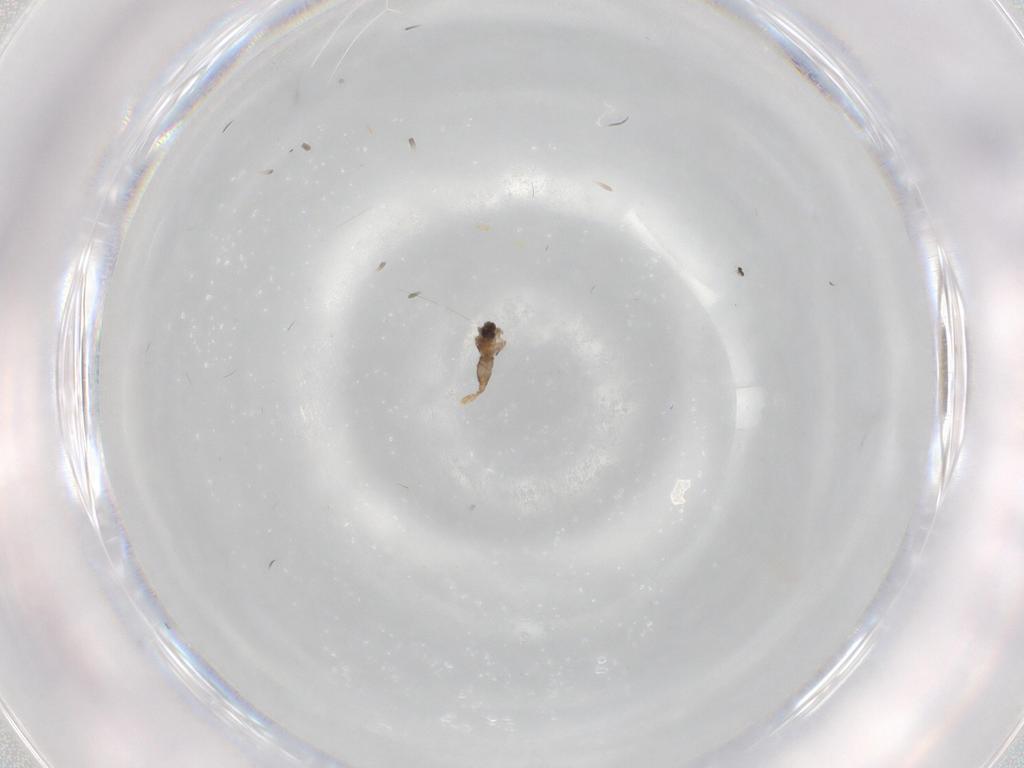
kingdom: Animalia
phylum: Arthropoda
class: Insecta
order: Diptera
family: Cecidomyiidae
